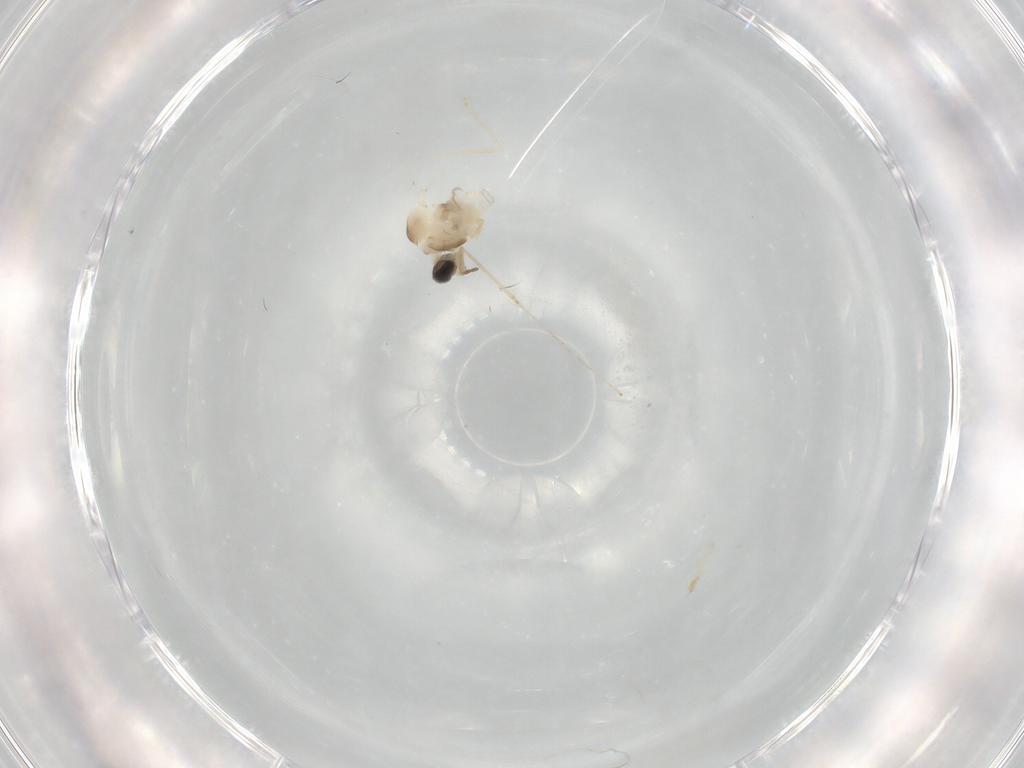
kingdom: Animalia
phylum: Arthropoda
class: Insecta
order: Diptera
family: Cecidomyiidae
